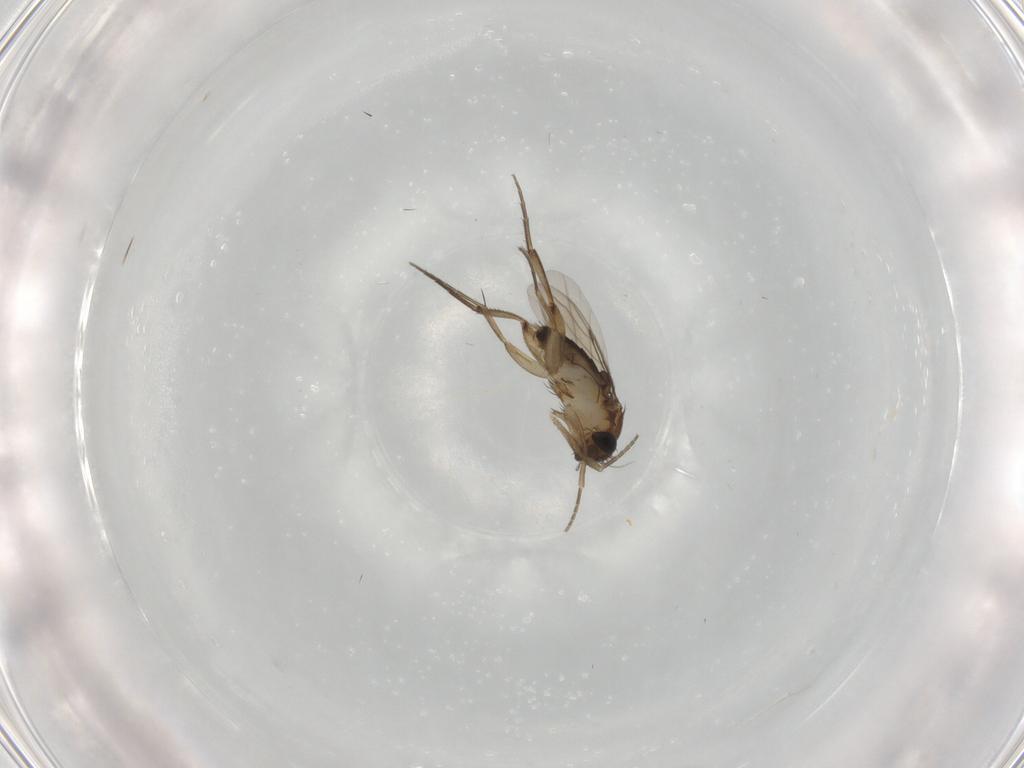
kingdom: Animalia
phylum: Arthropoda
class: Insecta
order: Diptera
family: Phoridae
